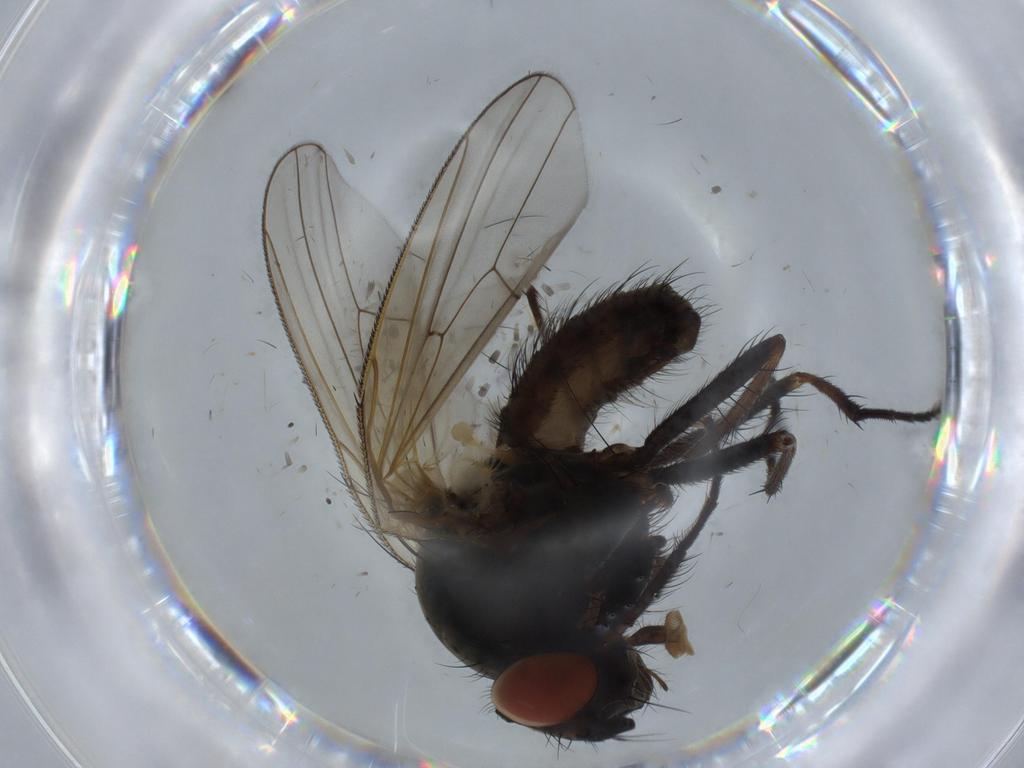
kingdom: Animalia
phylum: Arthropoda
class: Insecta
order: Diptera
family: Anthomyiidae
